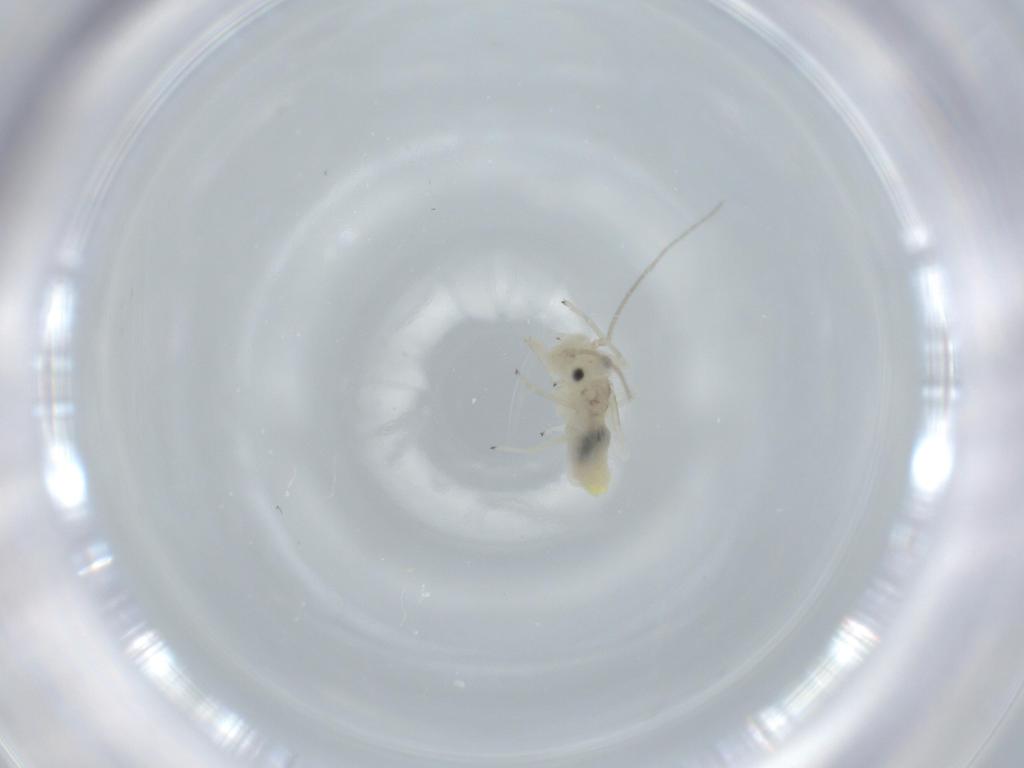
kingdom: Animalia
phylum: Arthropoda
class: Insecta
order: Psocodea
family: Caeciliusidae
